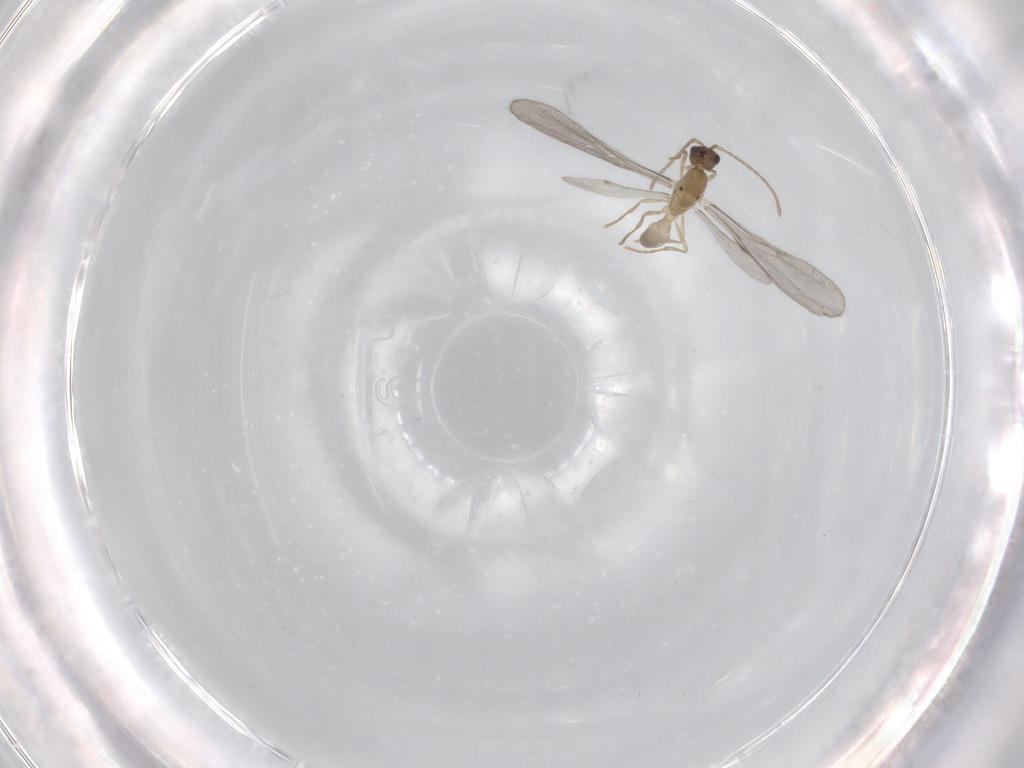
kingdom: Animalia
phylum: Arthropoda
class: Insecta
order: Hymenoptera
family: Formicidae
